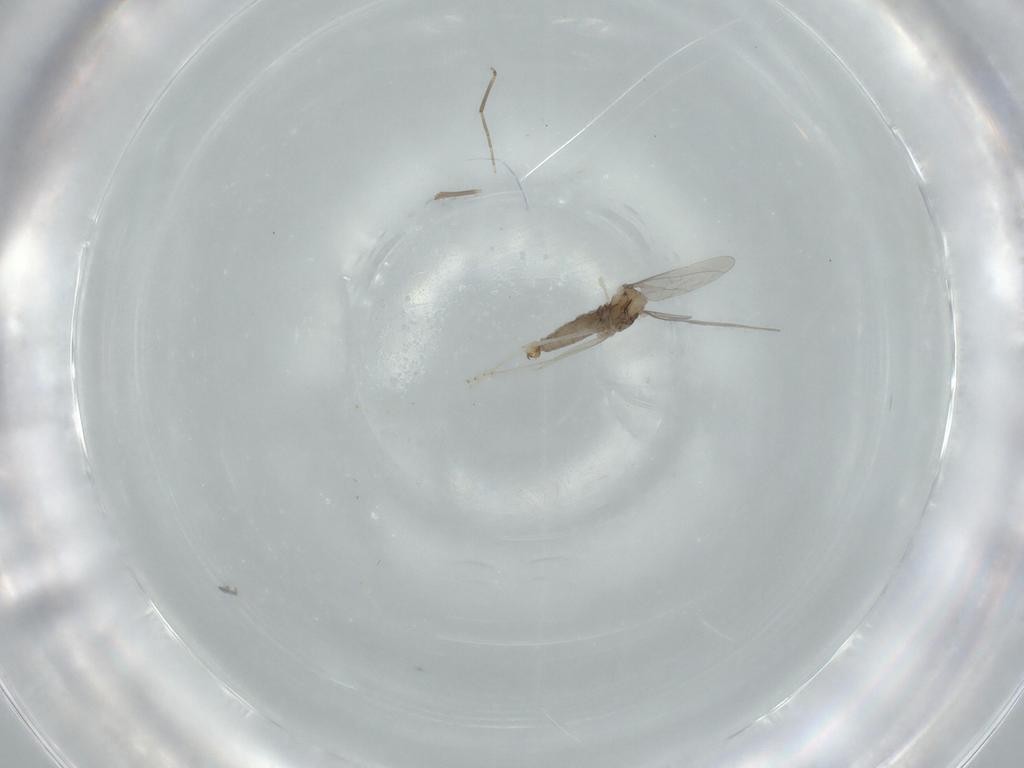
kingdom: Animalia
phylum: Arthropoda
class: Insecta
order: Diptera
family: Cecidomyiidae
